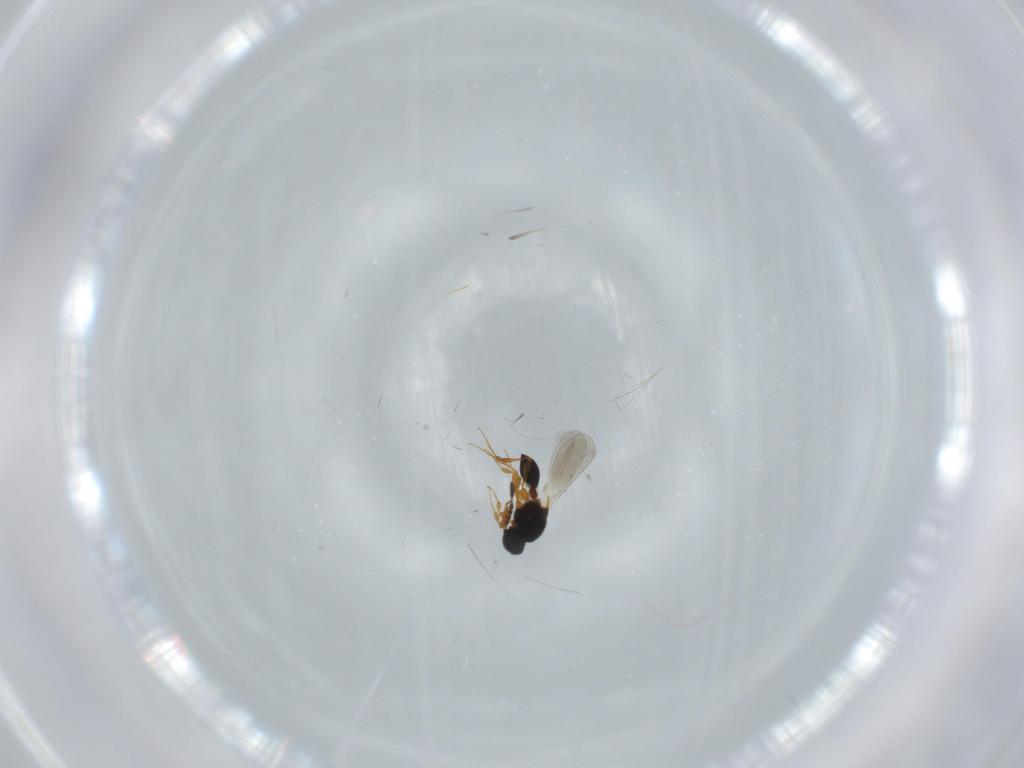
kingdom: Animalia
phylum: Arthropoda
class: Insecta
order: Hymenoptera
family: Platygastridae
